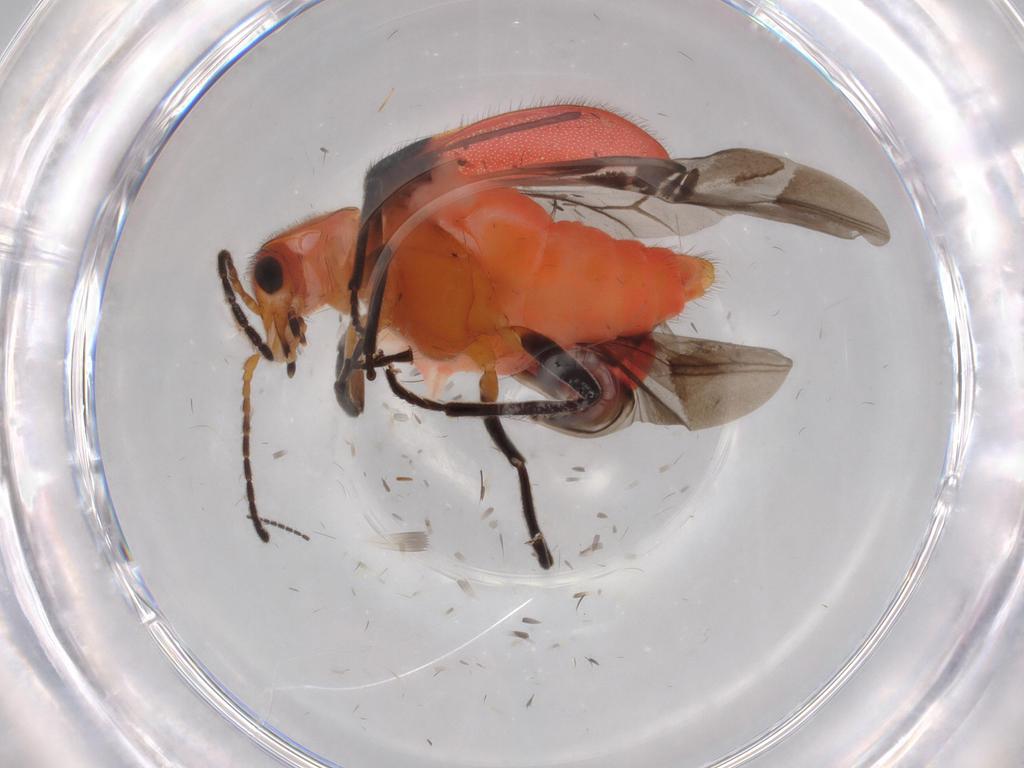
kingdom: Animalia
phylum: Arthropoda
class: Insecta
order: Coleoptera
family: Melyridae
